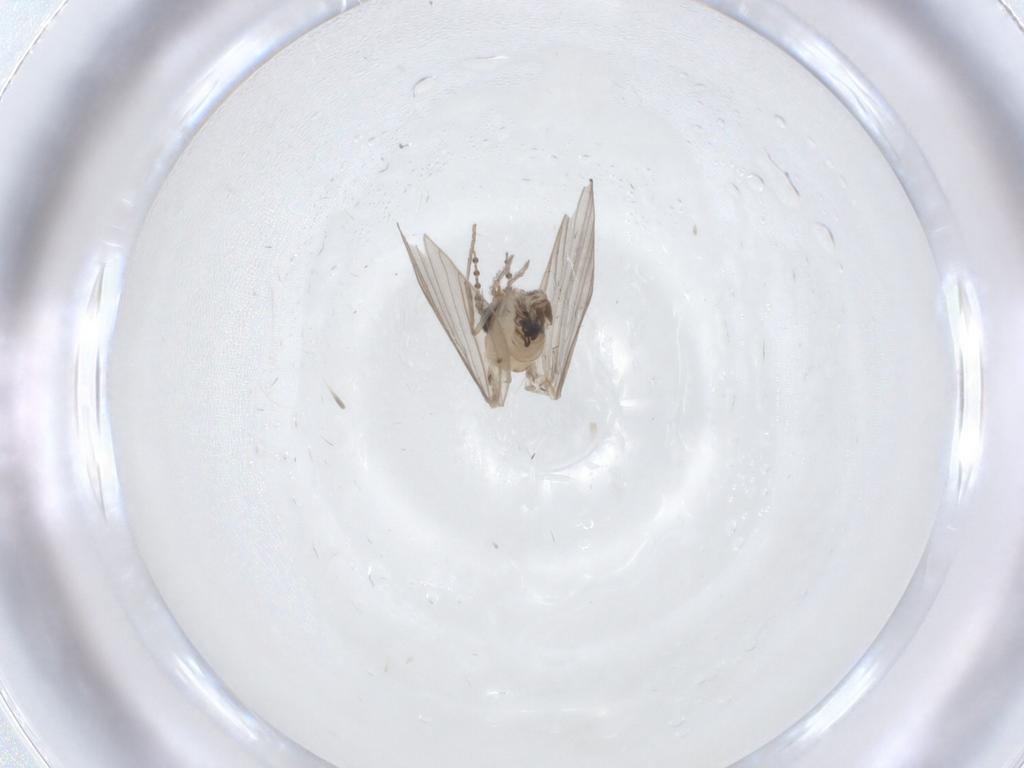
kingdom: Animalia
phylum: Arthropoda
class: Insecta
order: Diptera
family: Psychodidae
